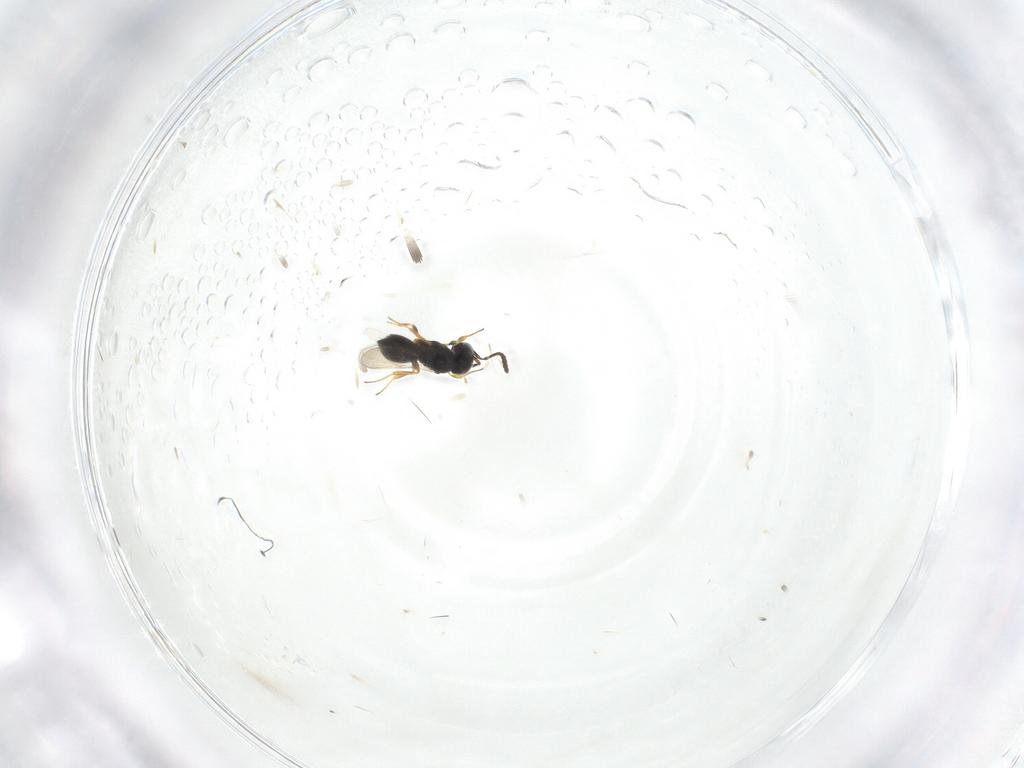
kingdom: Animalia
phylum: Arthropoda
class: Insecta
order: Hymenoptera
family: Scelionidae
